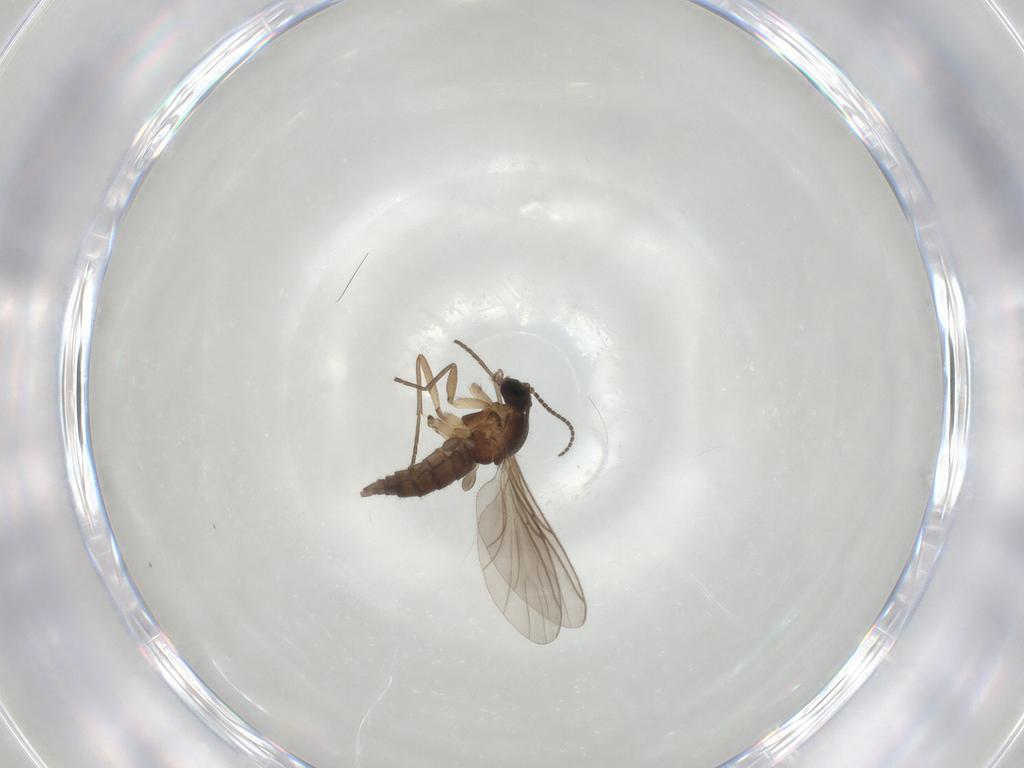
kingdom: Animalia
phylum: Arthropoda
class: Insecta
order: Diptera
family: Sciaridae
